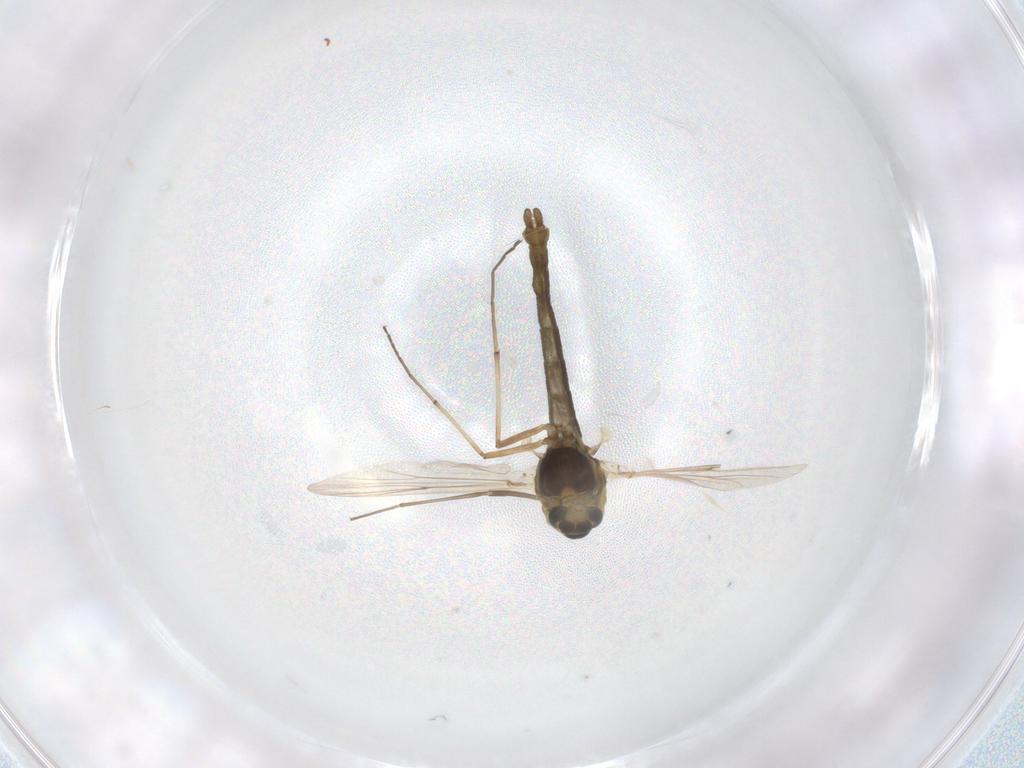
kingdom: Animalia
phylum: Arthropoda
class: Insecta
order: Diptera
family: Chironomidae
